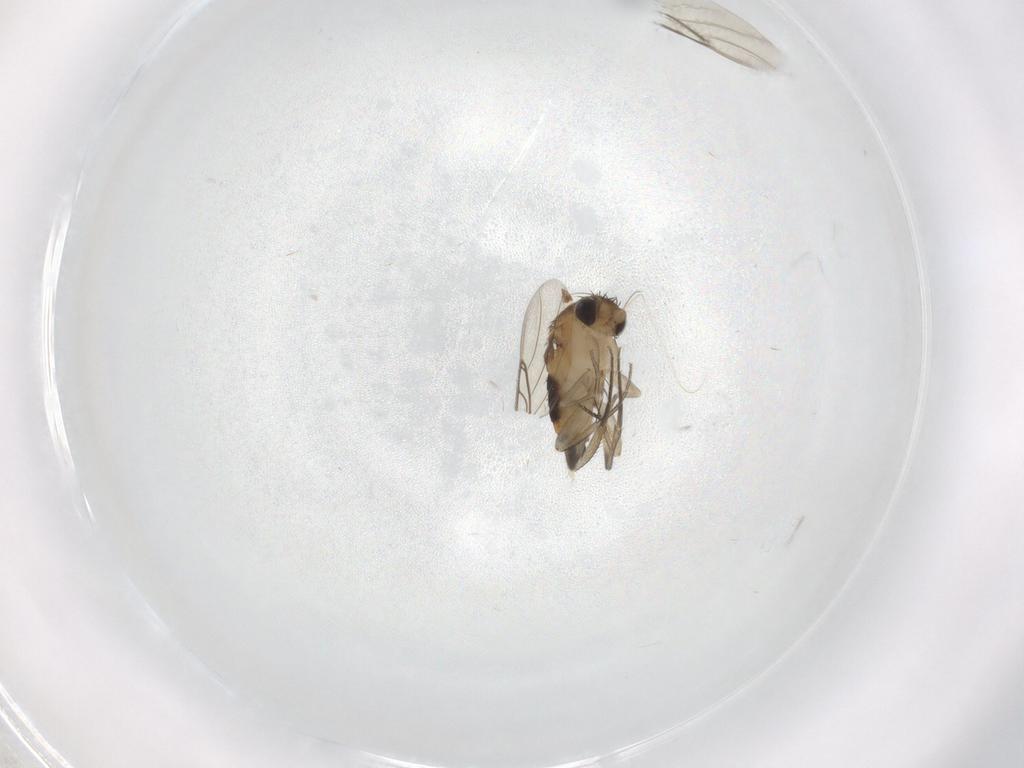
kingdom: Animalia
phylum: Arthropoda
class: Insecta
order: Diptera
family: Phoridae
